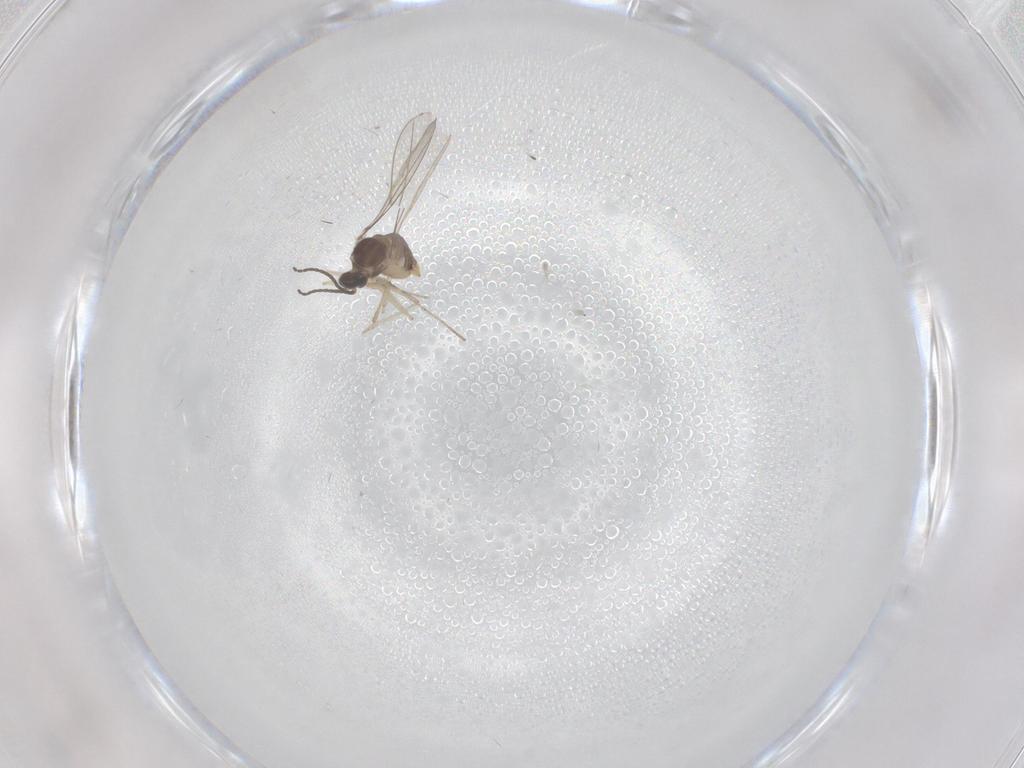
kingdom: Animalia
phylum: Arthropoda
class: Insecta
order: Diptera
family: Cecidomyiidae
